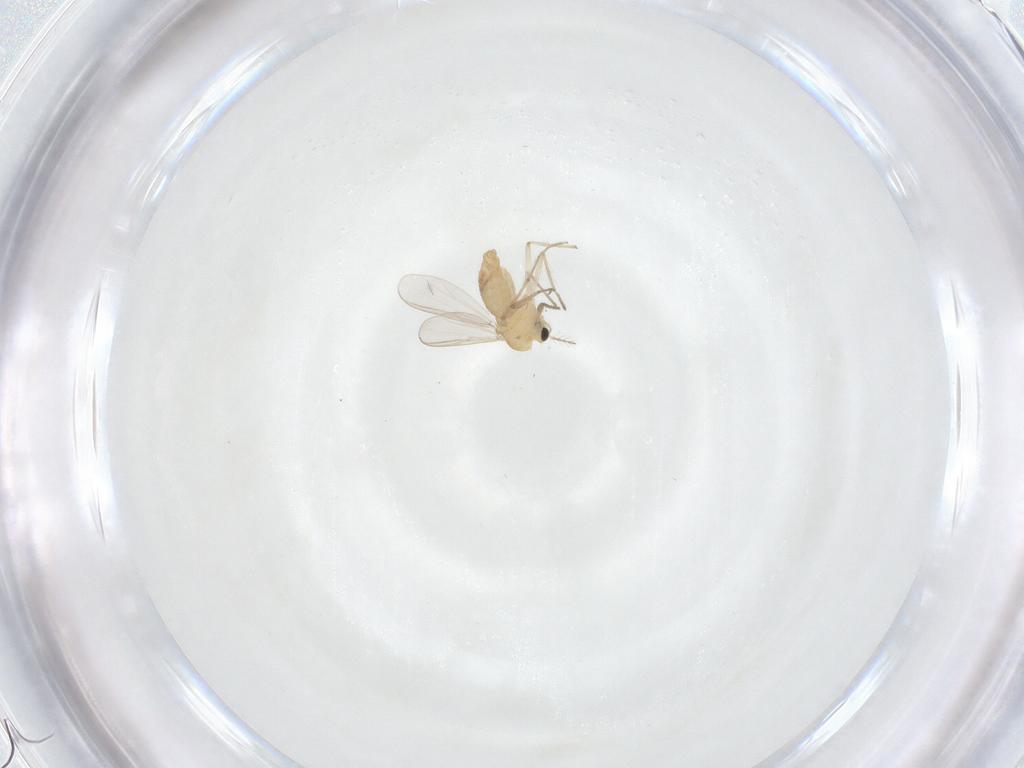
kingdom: Animalia
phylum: Arthropoda
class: Insecta
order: Diptera
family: Chironomidae
